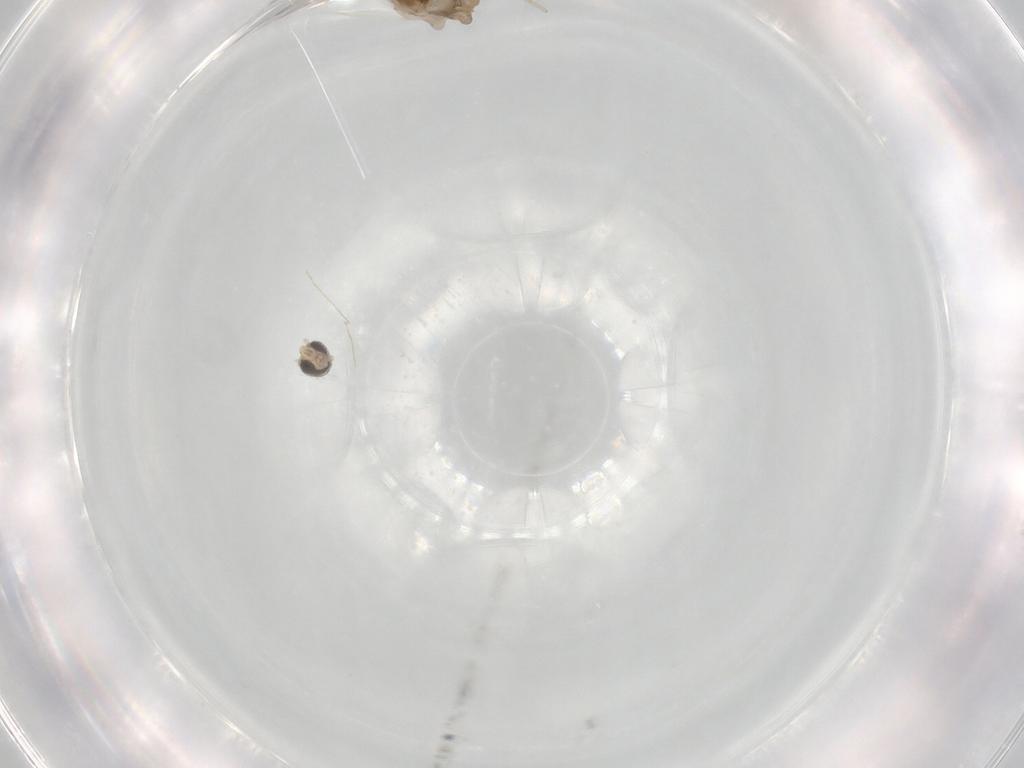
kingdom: Animalia
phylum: Arthropoda
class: Insecta
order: Diptera
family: Cecidomyiidae
